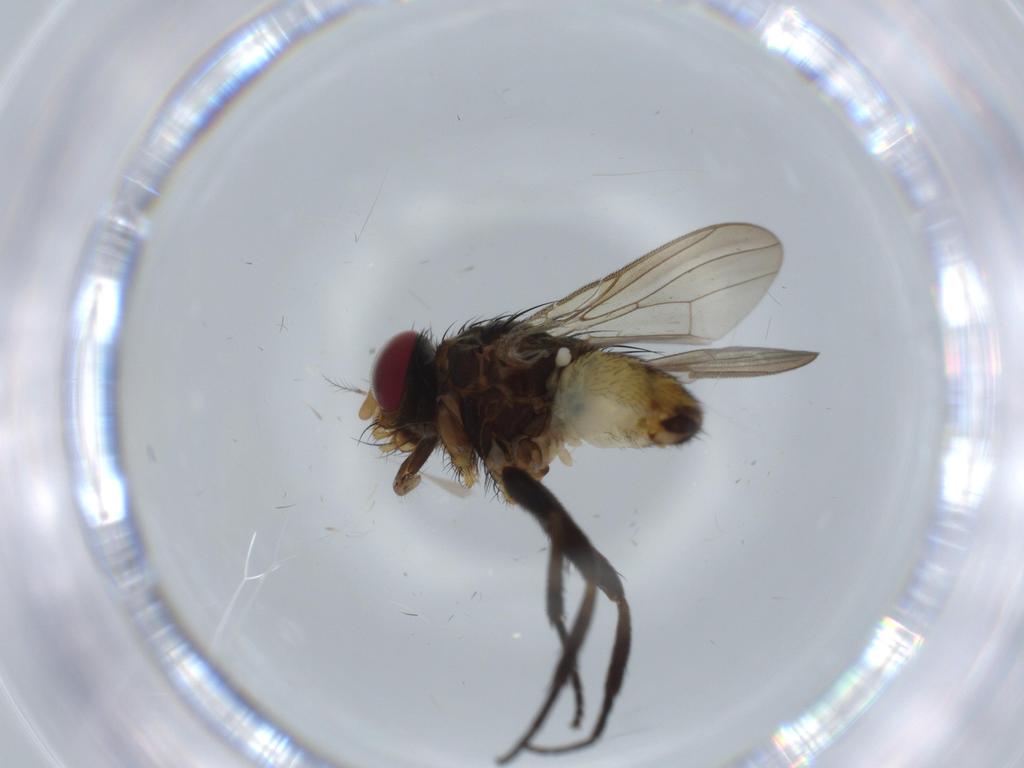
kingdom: Animalia
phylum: Arthropoda
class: Insecta
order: Diptera
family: Anthomyiidae
